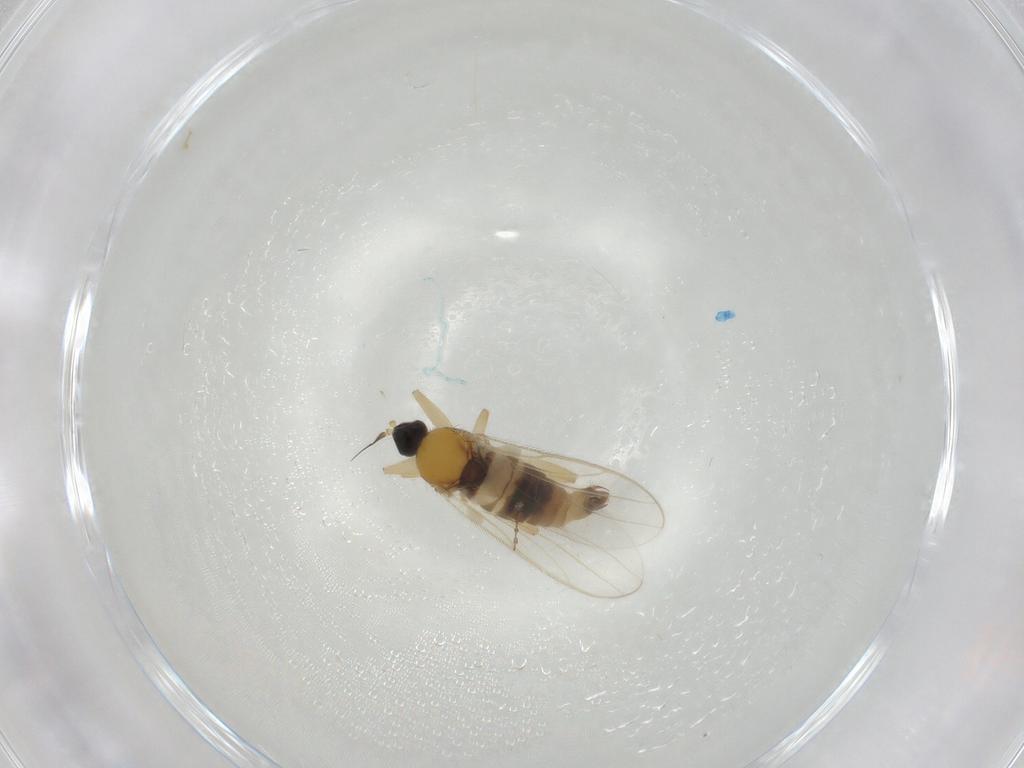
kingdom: Animalia
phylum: Arthropoda
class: Insecta
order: Diptera
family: Hybotidae
